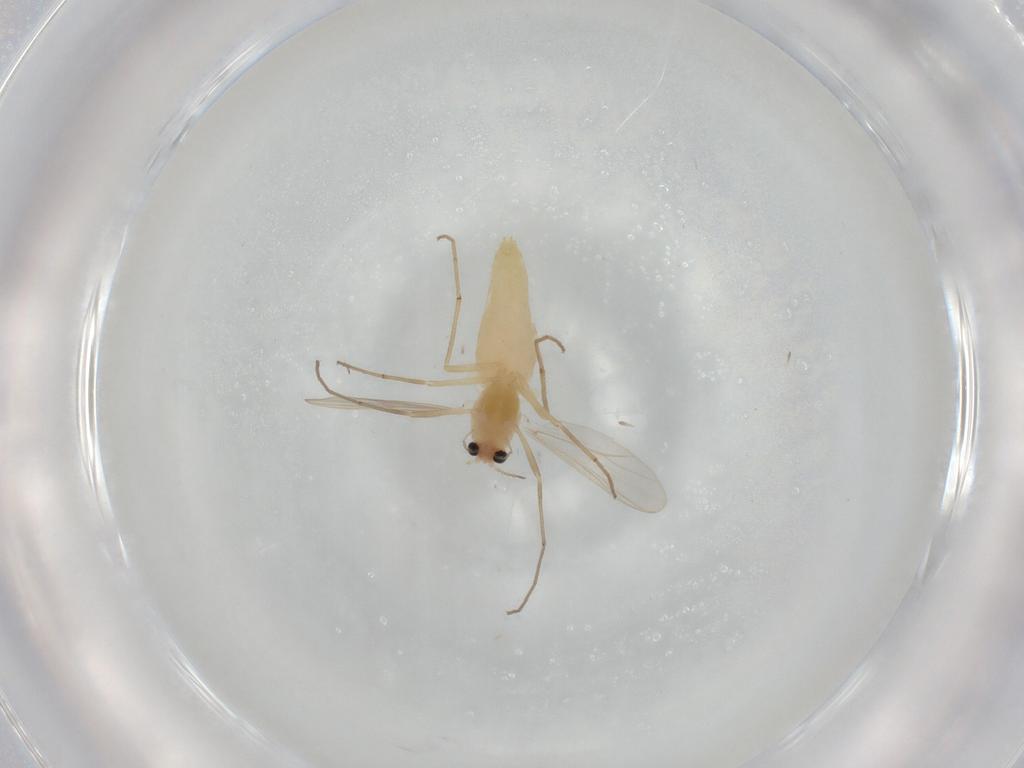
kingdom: Animalia
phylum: Arthropoda
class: Insecta
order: Diptera
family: Chironomidae
